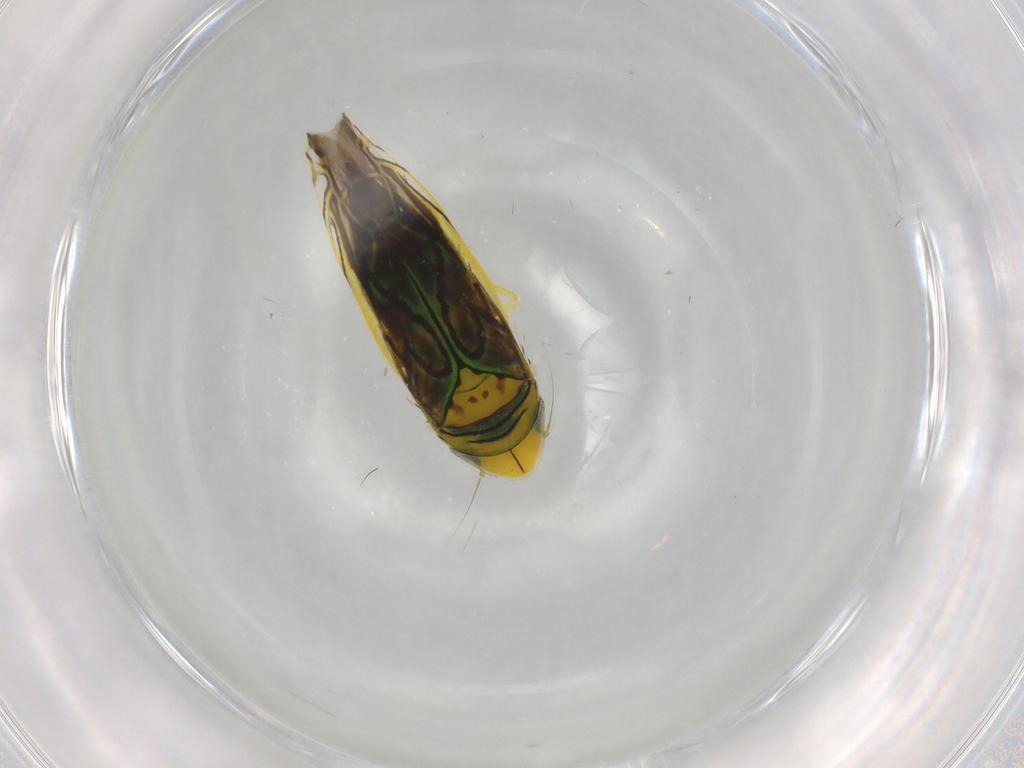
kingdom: Animalia
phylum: Arthropoda
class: Insecta
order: Hemiptera
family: Cicadellidae
